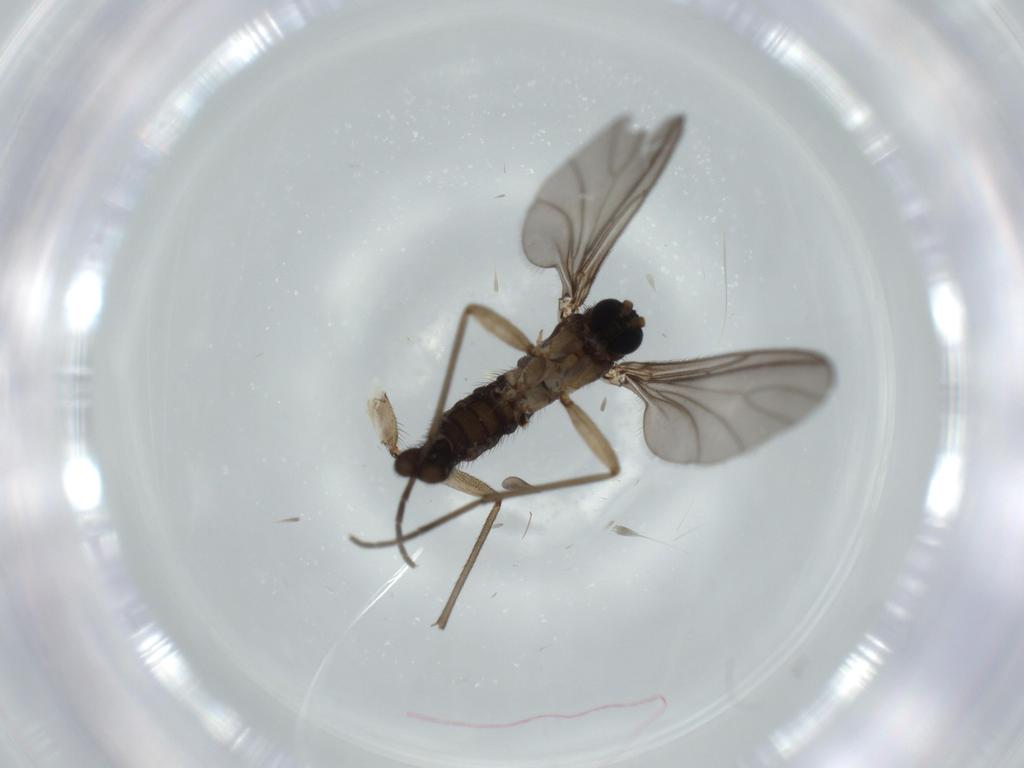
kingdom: Animalia
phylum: Arthropoda
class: Insecta
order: Diptera
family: Sciaridae
